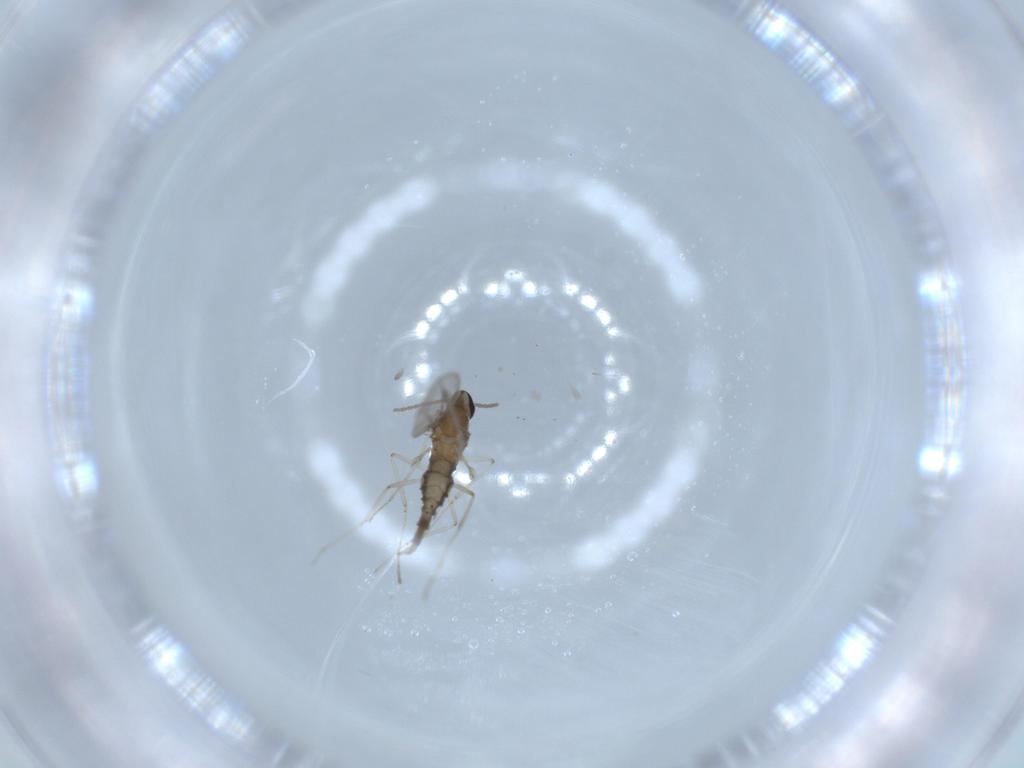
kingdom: Animalia
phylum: Arthropoda
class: Insecta
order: Diptera
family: Cecidomyiidae
